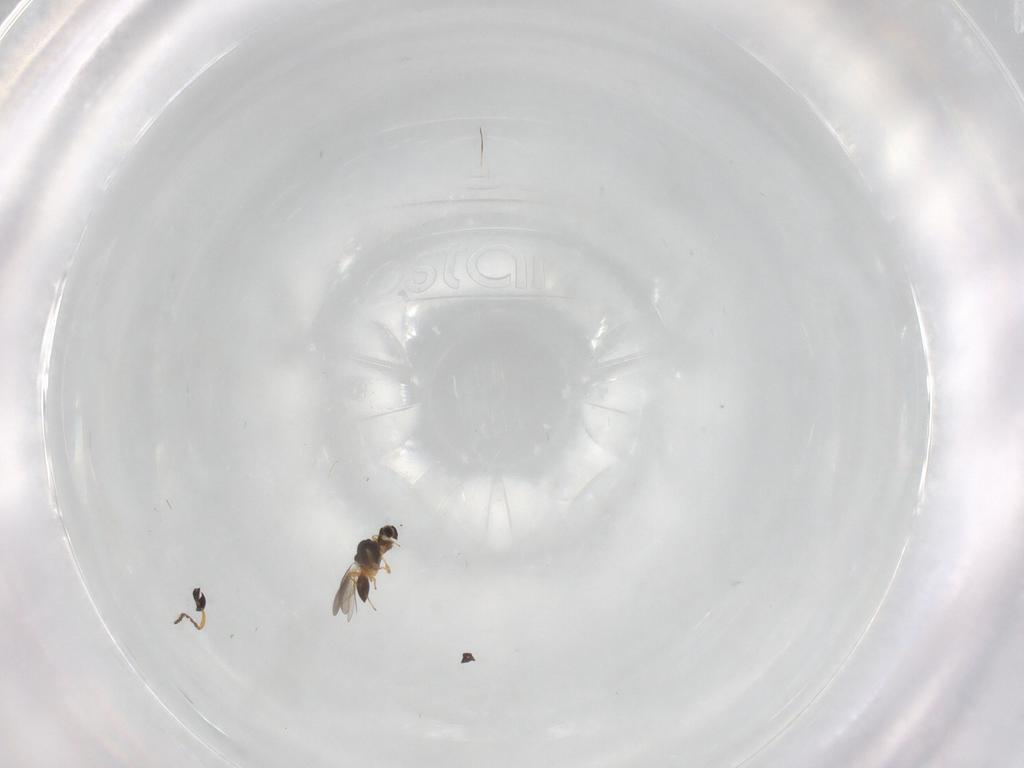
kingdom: Animalia
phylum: Arthropoda
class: Insecta
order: Hymenoptera
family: Platygastridae
